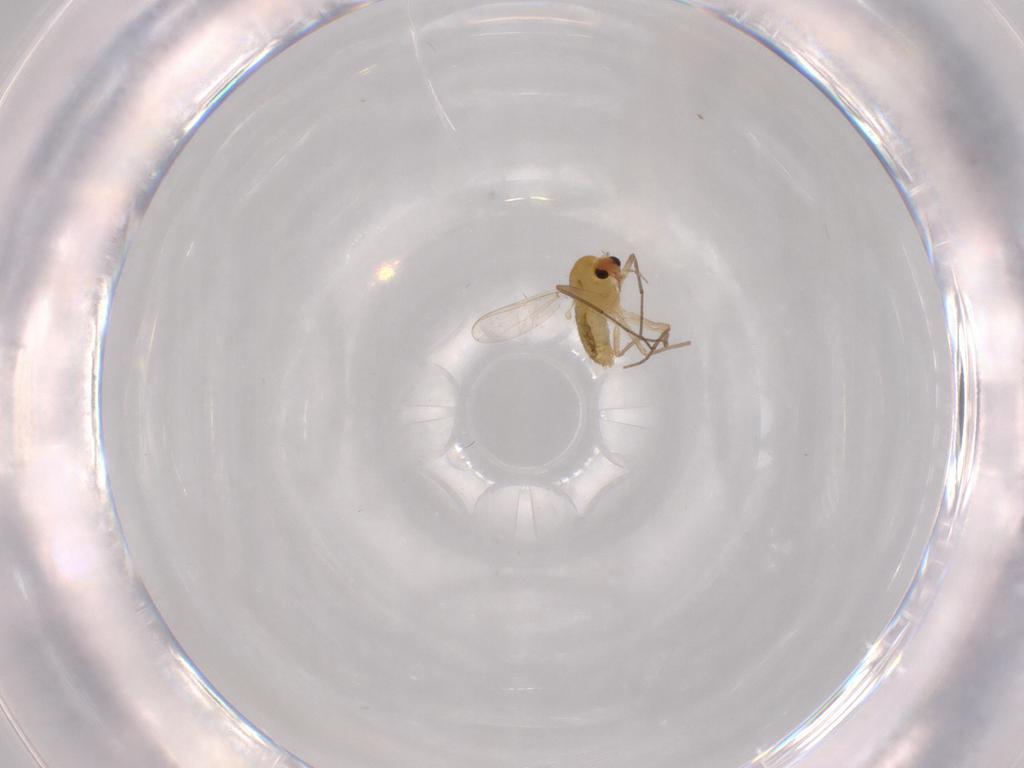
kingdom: Animalia
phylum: Arthropoda
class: Insecta
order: Diptera
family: Chironomidae
